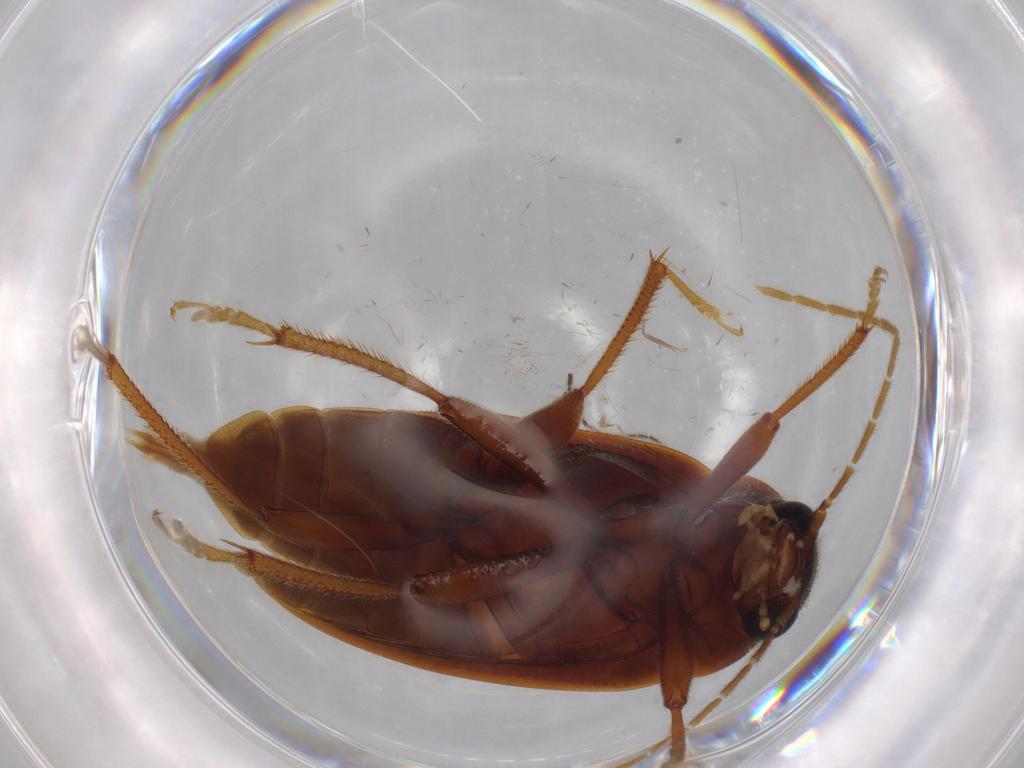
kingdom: Animalia
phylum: Arthropoda
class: Insecta
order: Coleoptera
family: Ptilodactylidae
